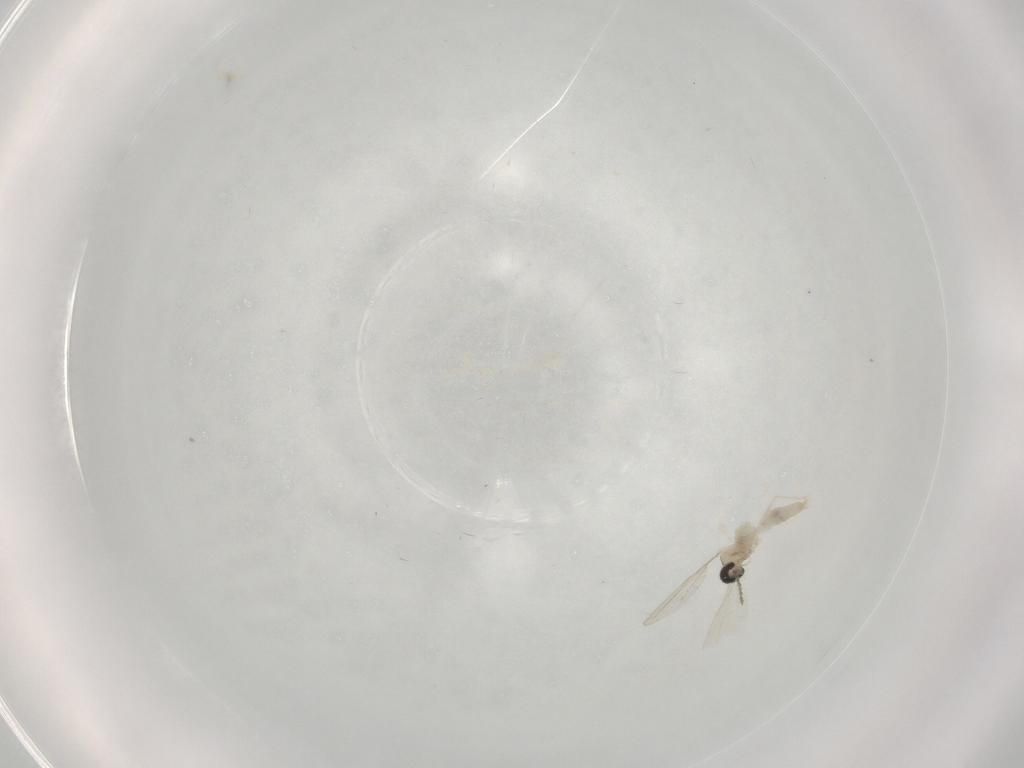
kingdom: Animalia
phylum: Arthropoda
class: Insecta
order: Diptera
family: Cecidomyiidae
